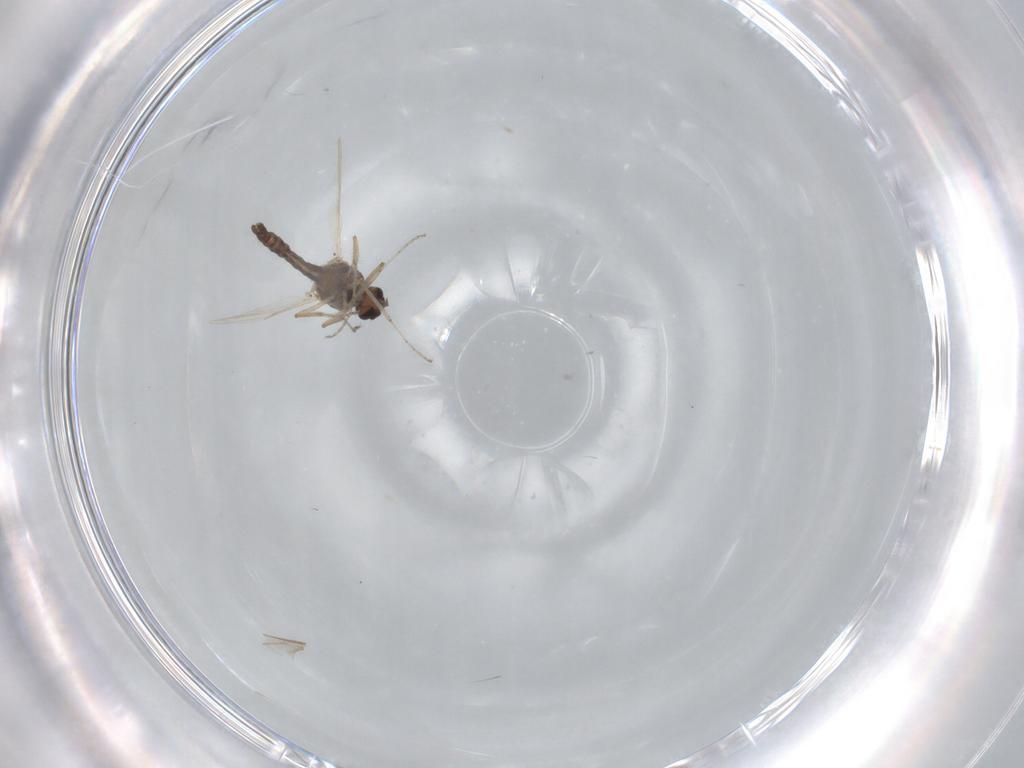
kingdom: Animalia
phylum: Arthropoda
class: Insecta
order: Diptera
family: Ceratopogonidae
